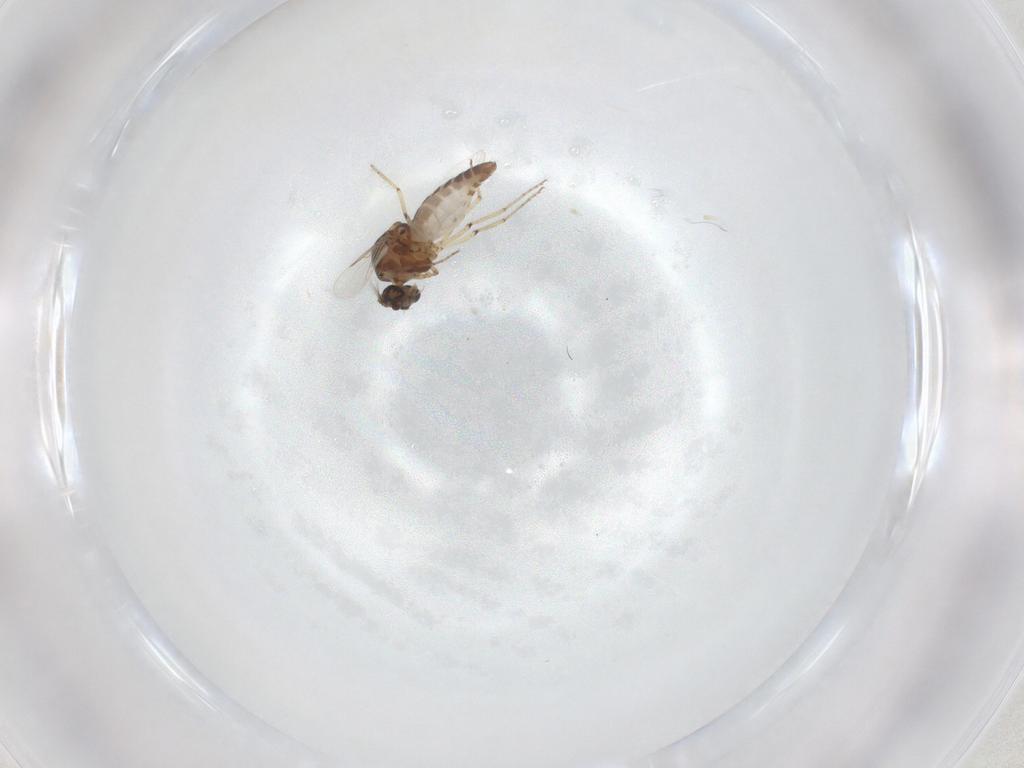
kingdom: Animalia
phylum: Arthropoda
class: Insecta
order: Diptera
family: Ceratopogonidae
